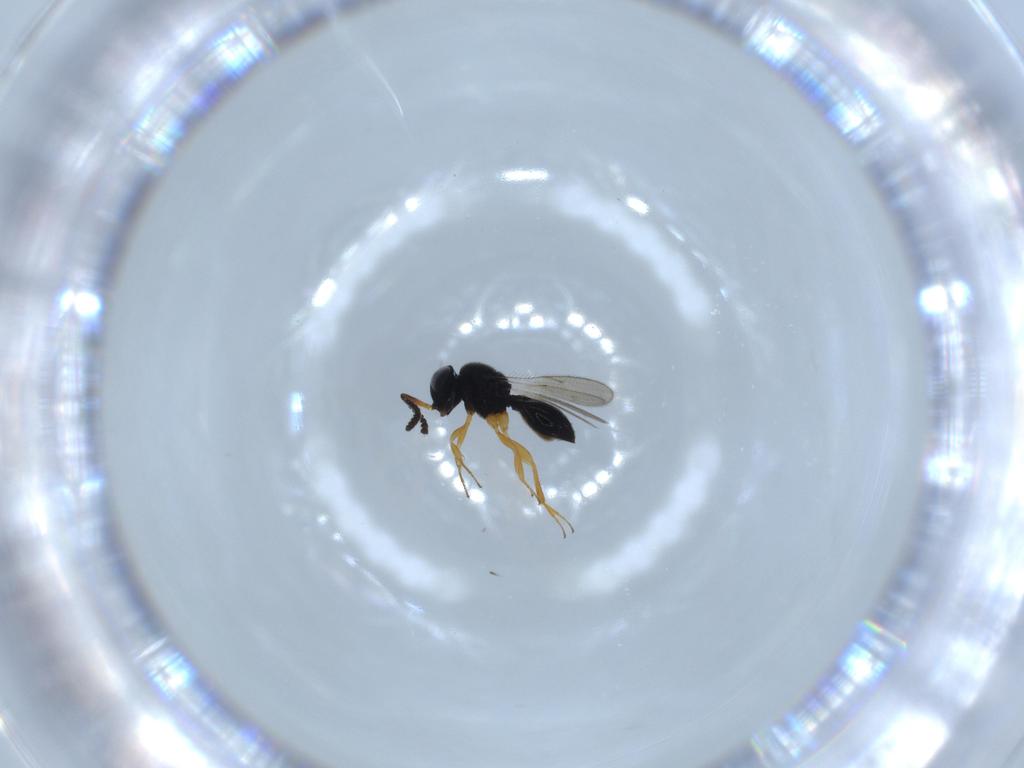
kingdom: Animalia
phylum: Arthropoda
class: Insecta
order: Hymenoptera
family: Scelionidae
